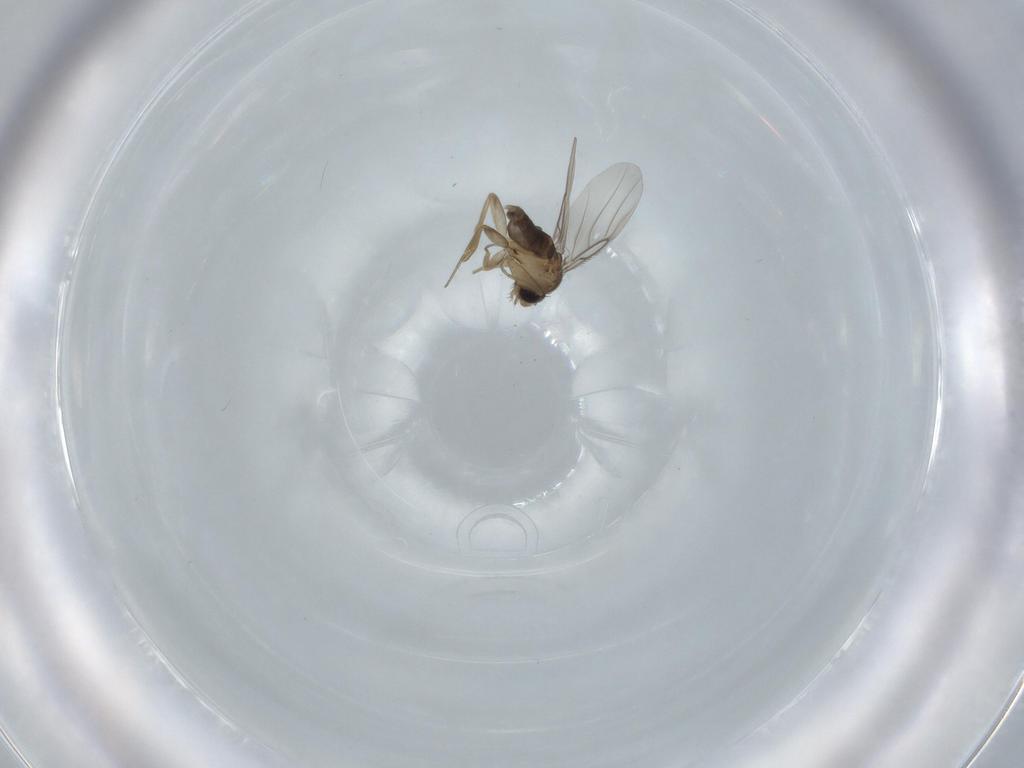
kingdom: Animalia
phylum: Arthropoda
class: Insecta
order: Diptera
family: Phoridae
